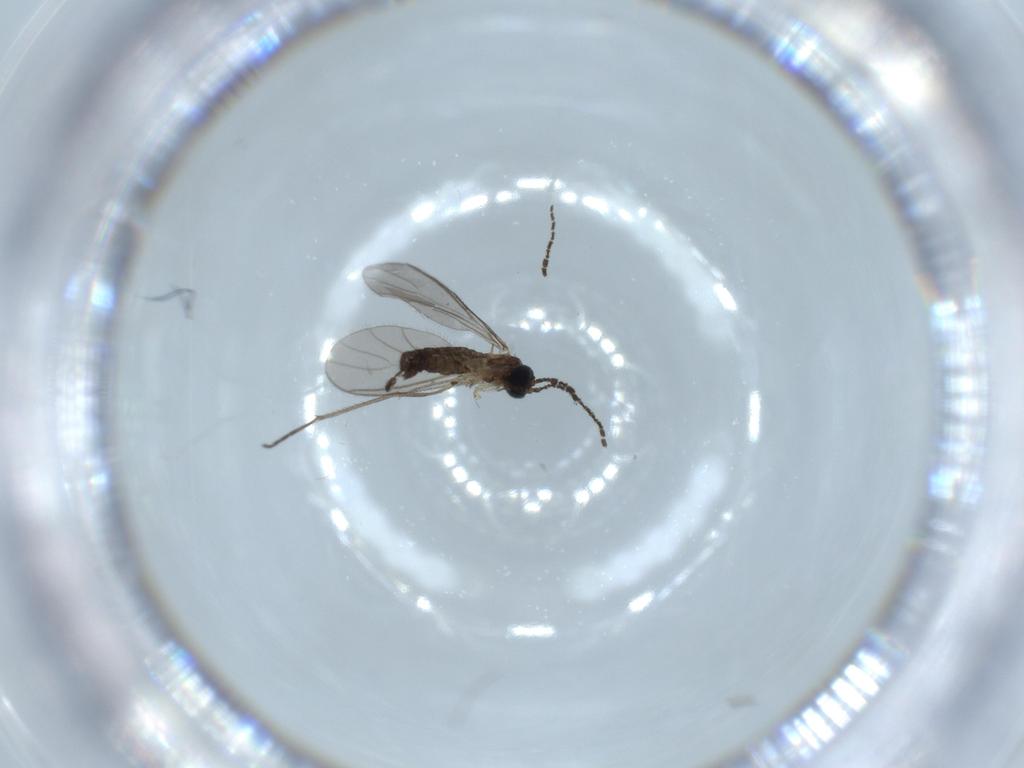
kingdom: Animalia
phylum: Arthropoda
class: Insecta
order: Diptera
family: Sciaridae
